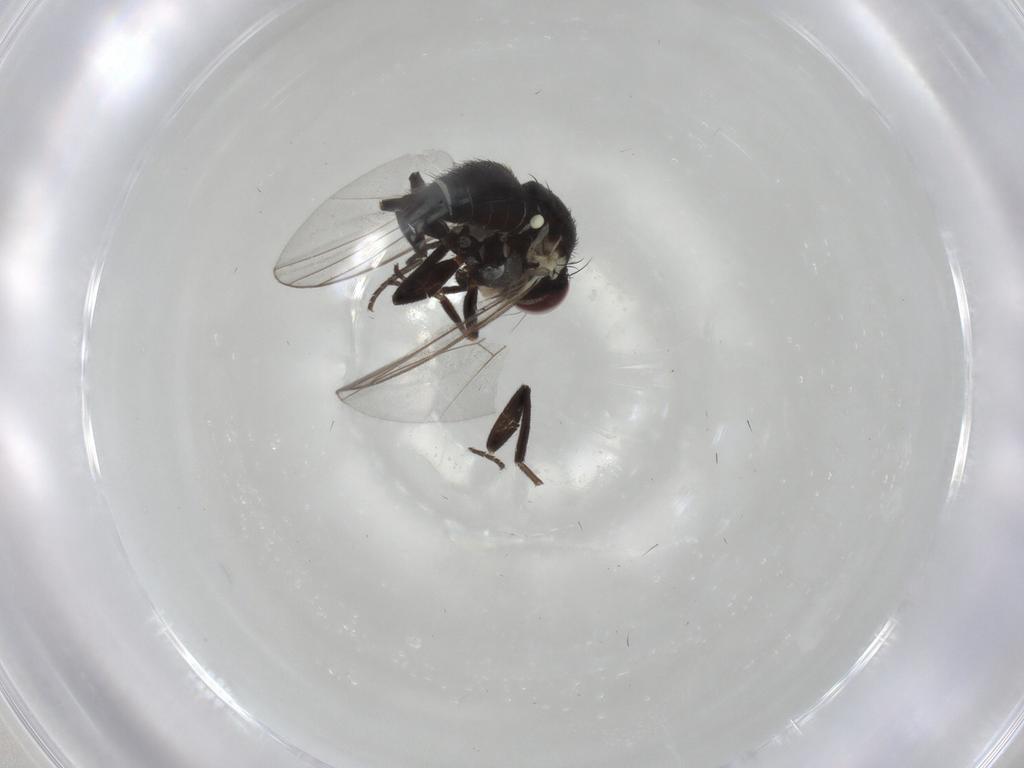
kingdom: Animalia
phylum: Arthropoda
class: Insecta
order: Diptera
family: Agromyzidae
